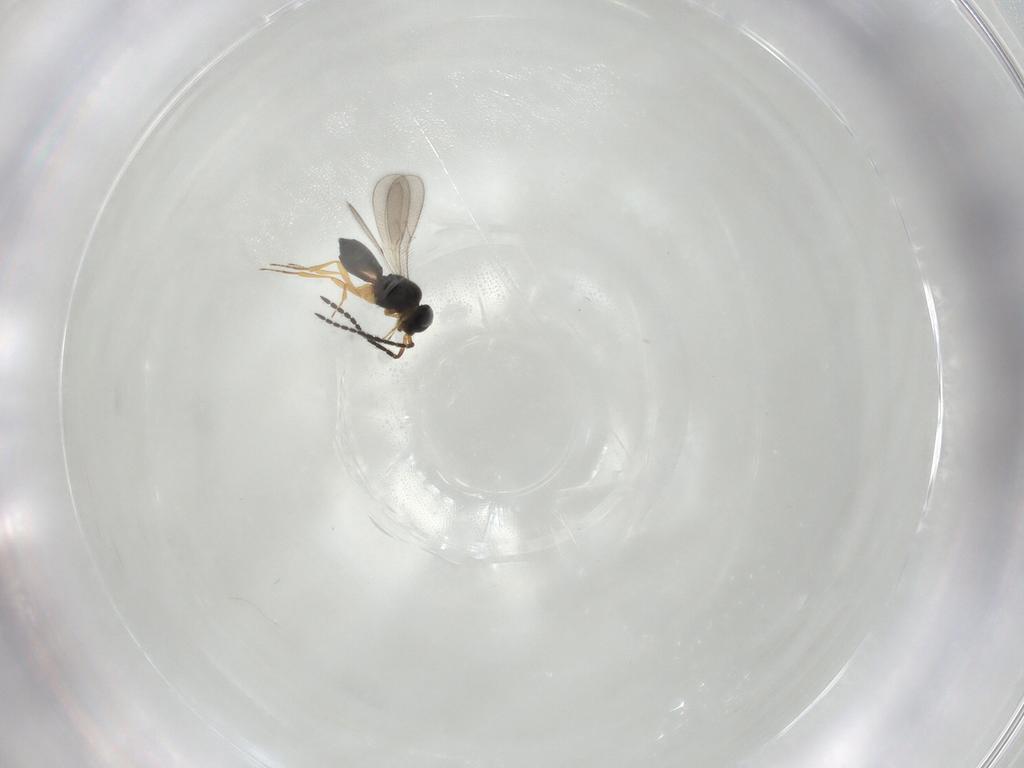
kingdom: Animalia
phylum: Arthropoda
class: Insecta
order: Hymenoptera
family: Scelionidae
